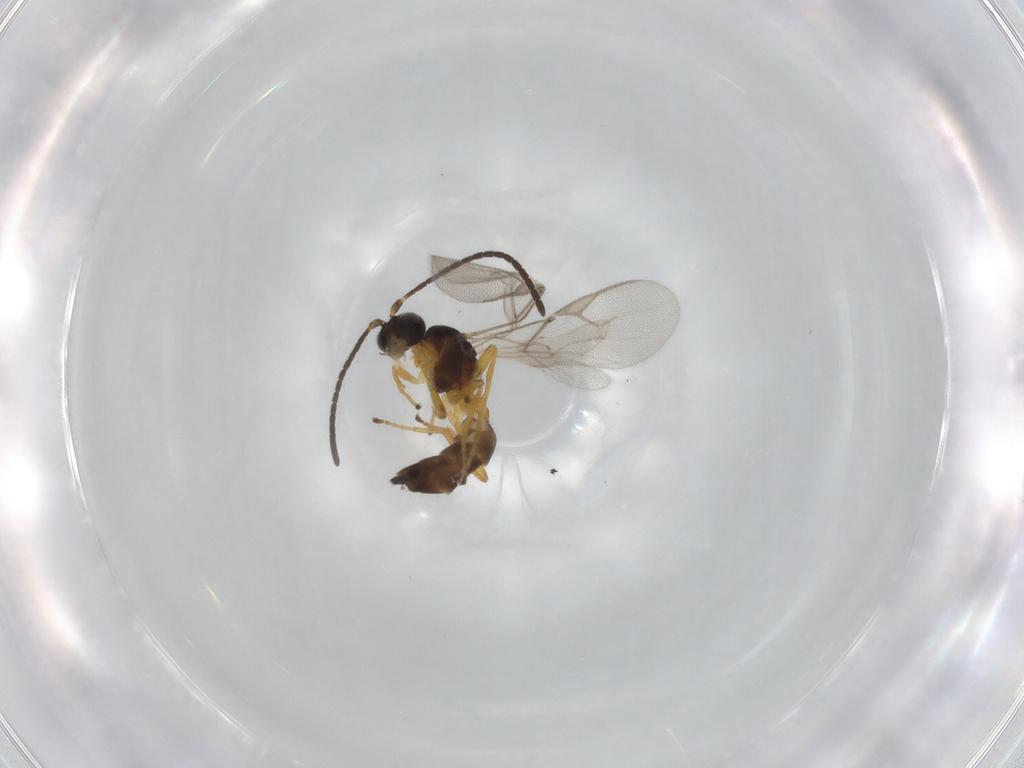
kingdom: Animalia
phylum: Arthropoda
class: Insecta
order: Hymenoptera
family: Braconidae
